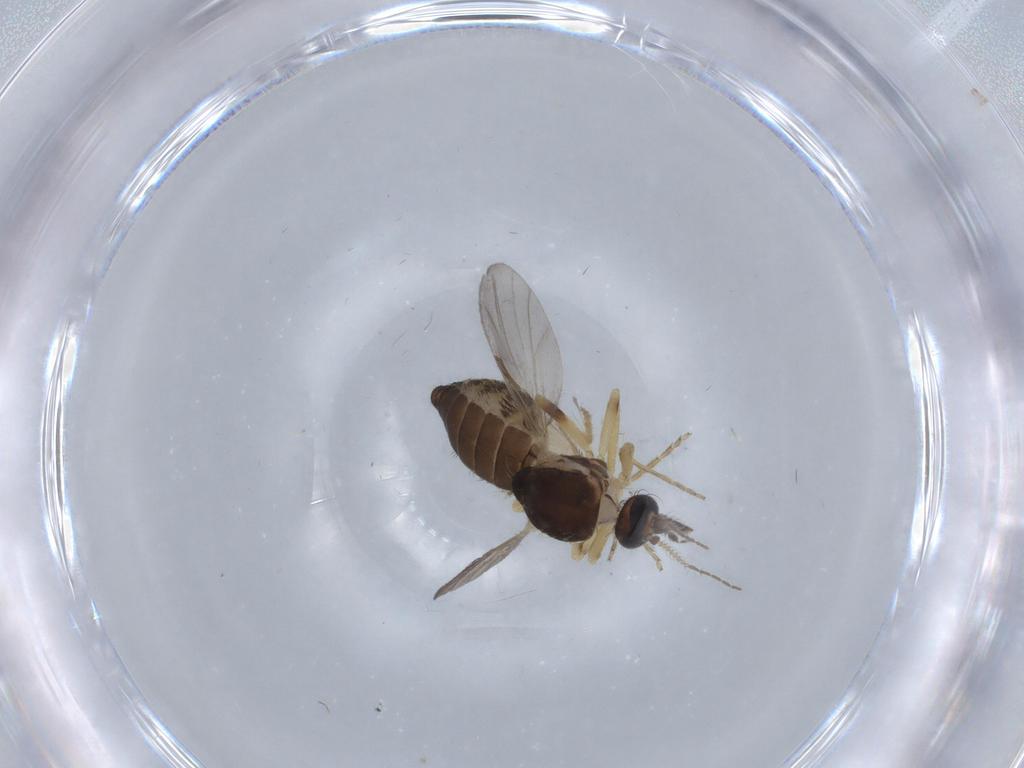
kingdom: Animalia
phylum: Arthropoda
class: Insecta
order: Diptera
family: Ceratopogonidae
